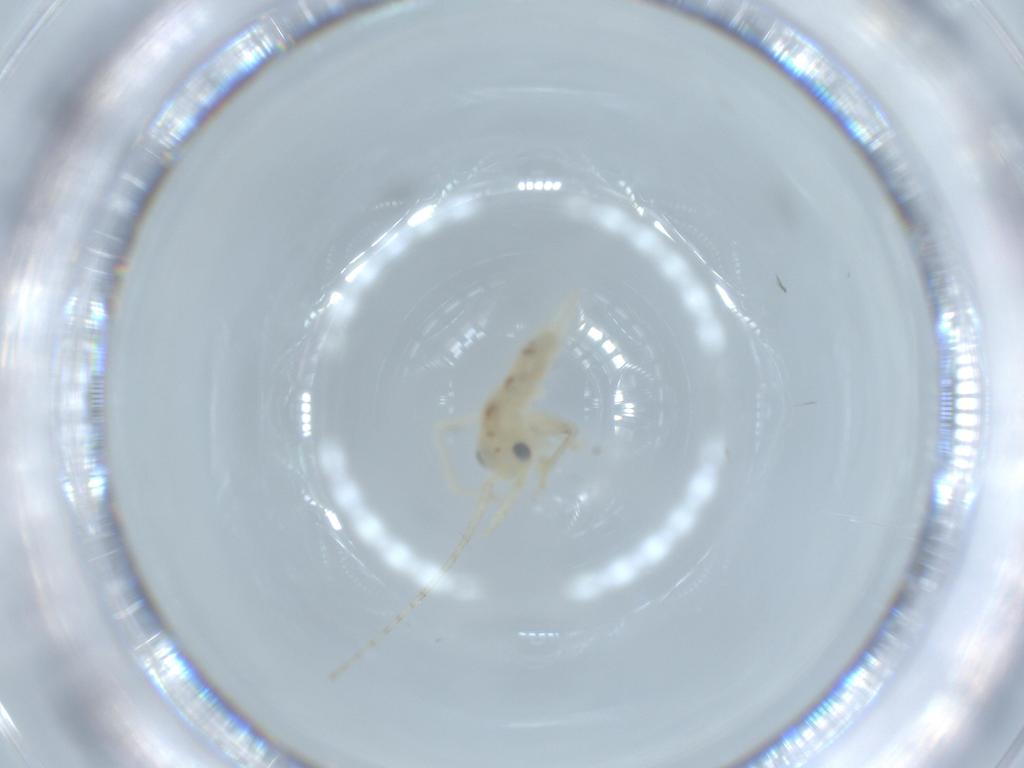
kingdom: Animalia
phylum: Arthropoda
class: Insecta
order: Orthoptera
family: Trigonidiidae
